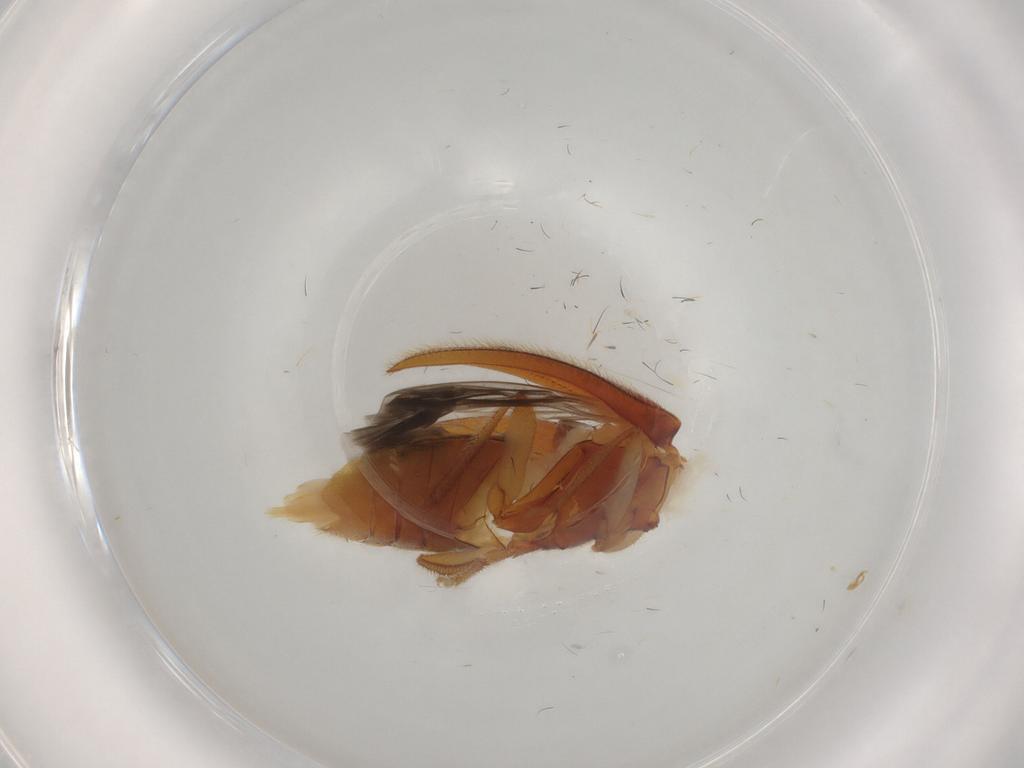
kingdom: Animalia
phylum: Arthropoda
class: Insecta
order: Coleoptera
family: Ptilodactylidae
